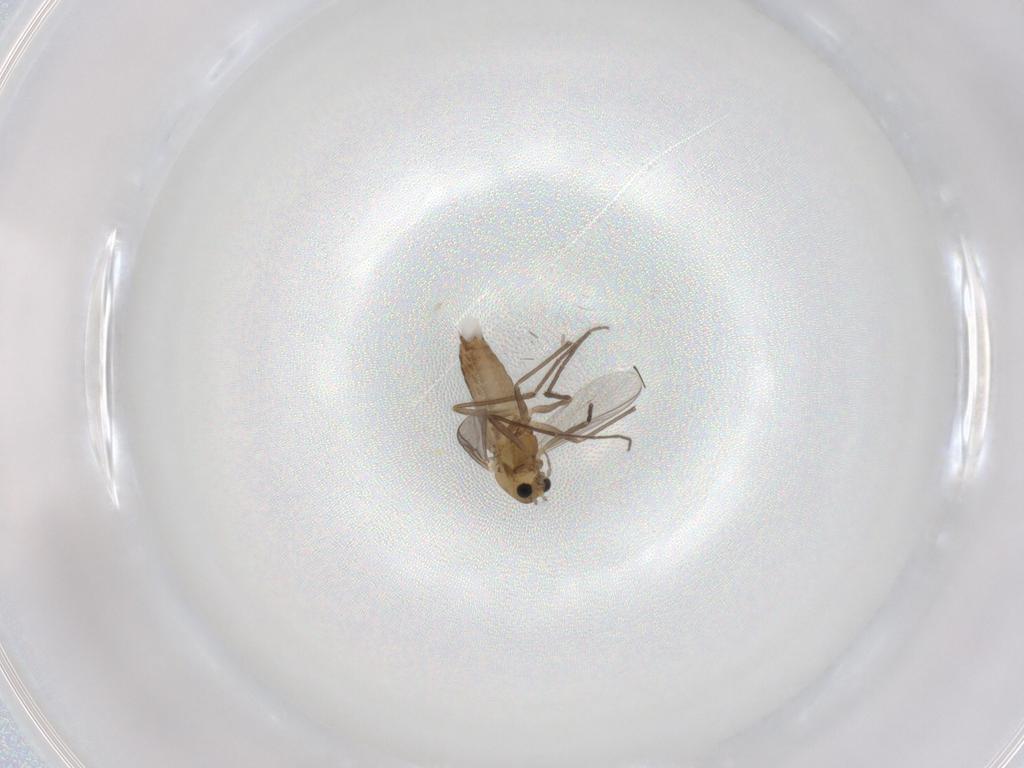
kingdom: Animalia
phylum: Arthropoda
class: Insecta
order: Diptera
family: Chironomidae
